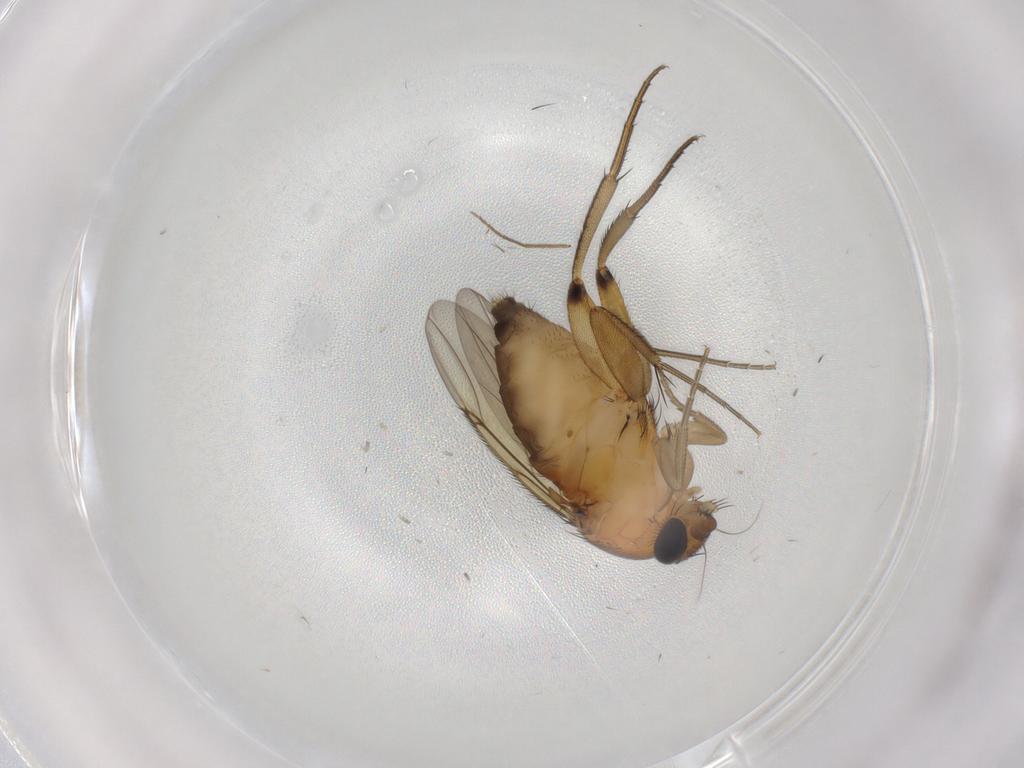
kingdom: Animalia
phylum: Arthropoda
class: Insecta
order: Diptera
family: Phoridae
